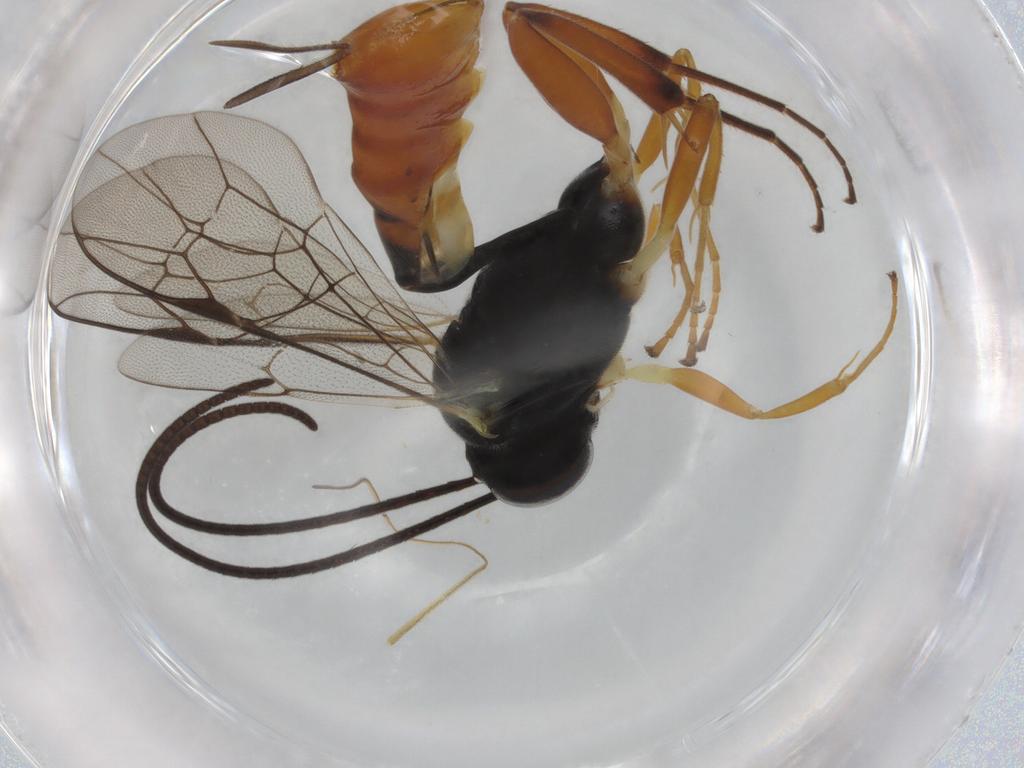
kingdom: Animalia
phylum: Arthropoda
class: Insecta
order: Hymenoptera
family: Ichneumonidae
